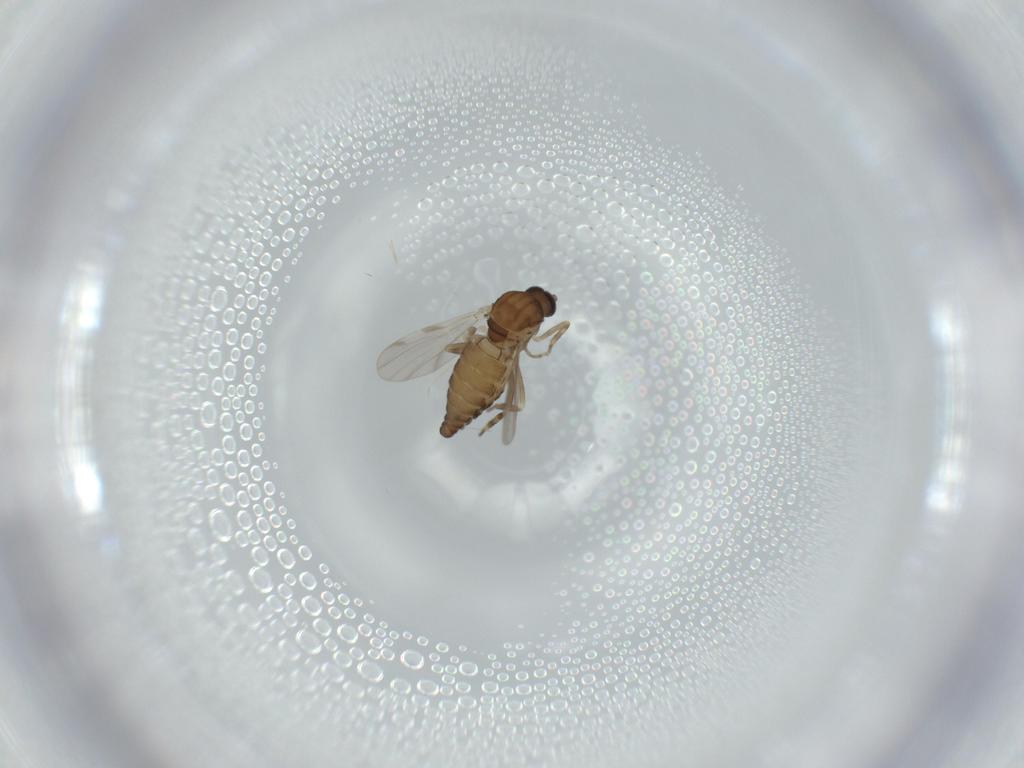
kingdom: Animalia
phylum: Arthropoda
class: Insecta
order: Diptera
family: Ceratopogonidae
